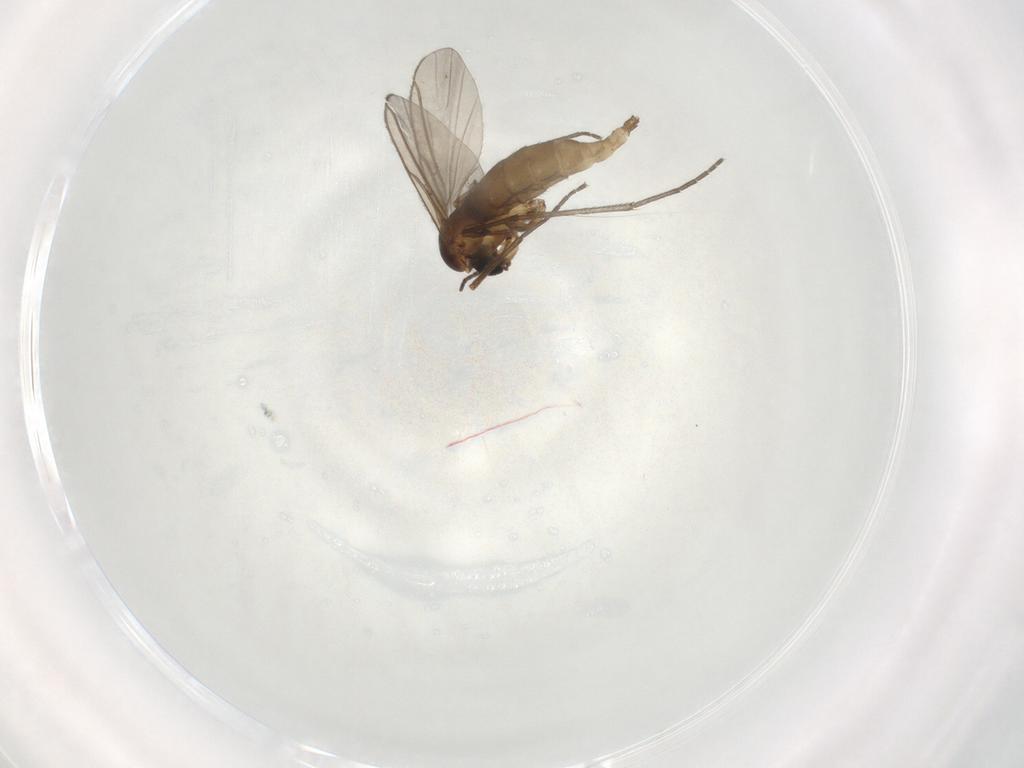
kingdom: Animalia
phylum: Arthropoda
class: Insecta
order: Diptera
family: Sciaridae
